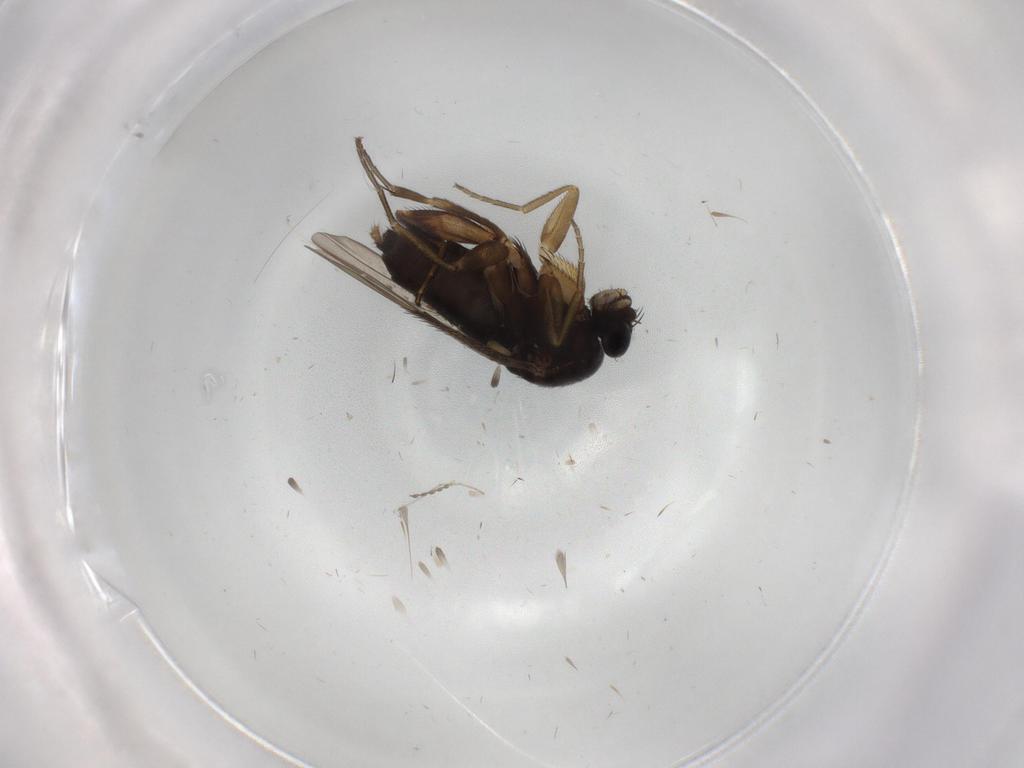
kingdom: Animalia
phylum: Arthropoda
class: Insecta
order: Diptera
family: Phoridae
